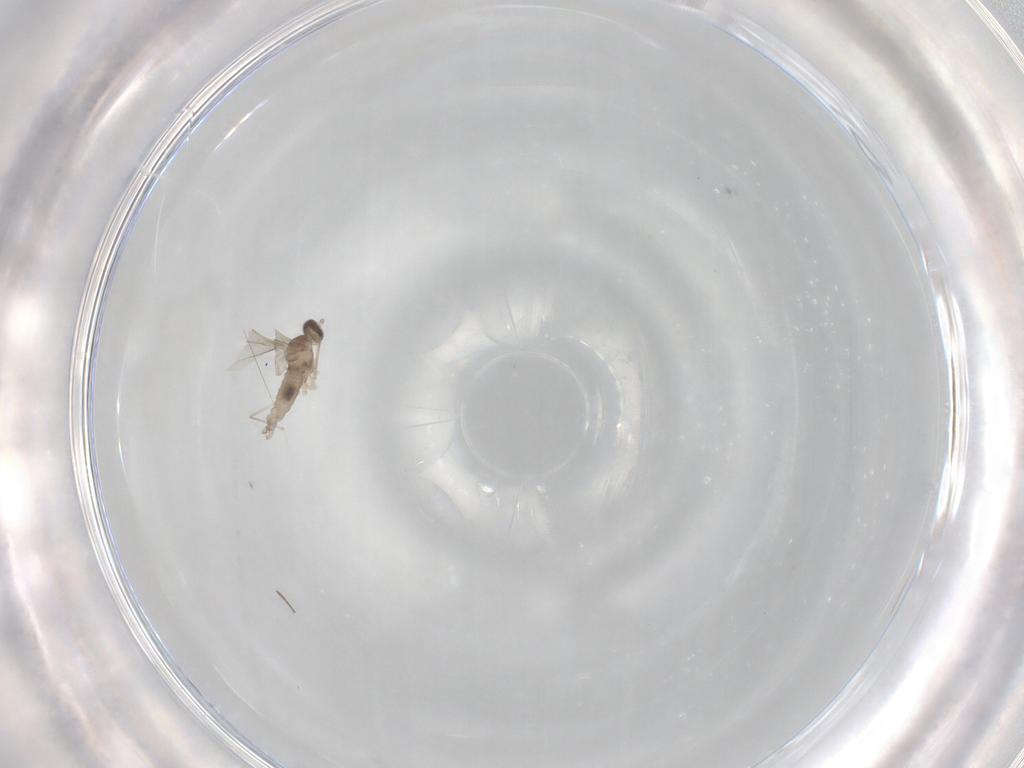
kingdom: Animalia
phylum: Arthropoda
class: Insecta
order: Diptera
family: Cecidomyiidae
